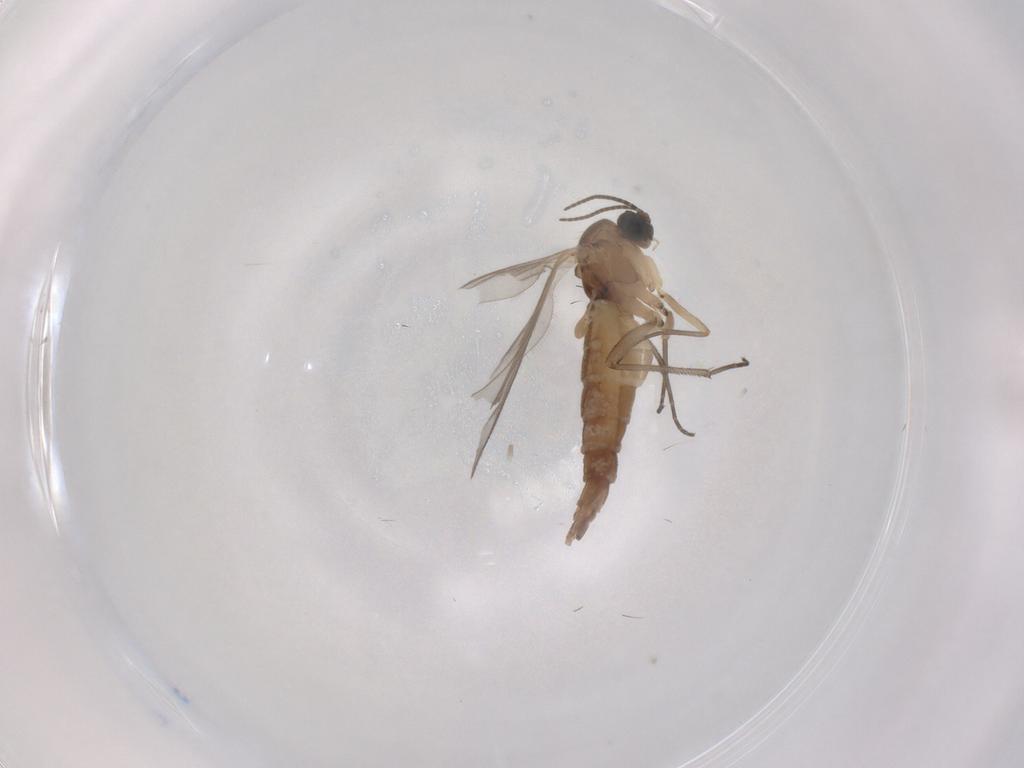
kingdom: Animalia
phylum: Arthropoda
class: Insecta
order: Diptera
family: Sciaridae
